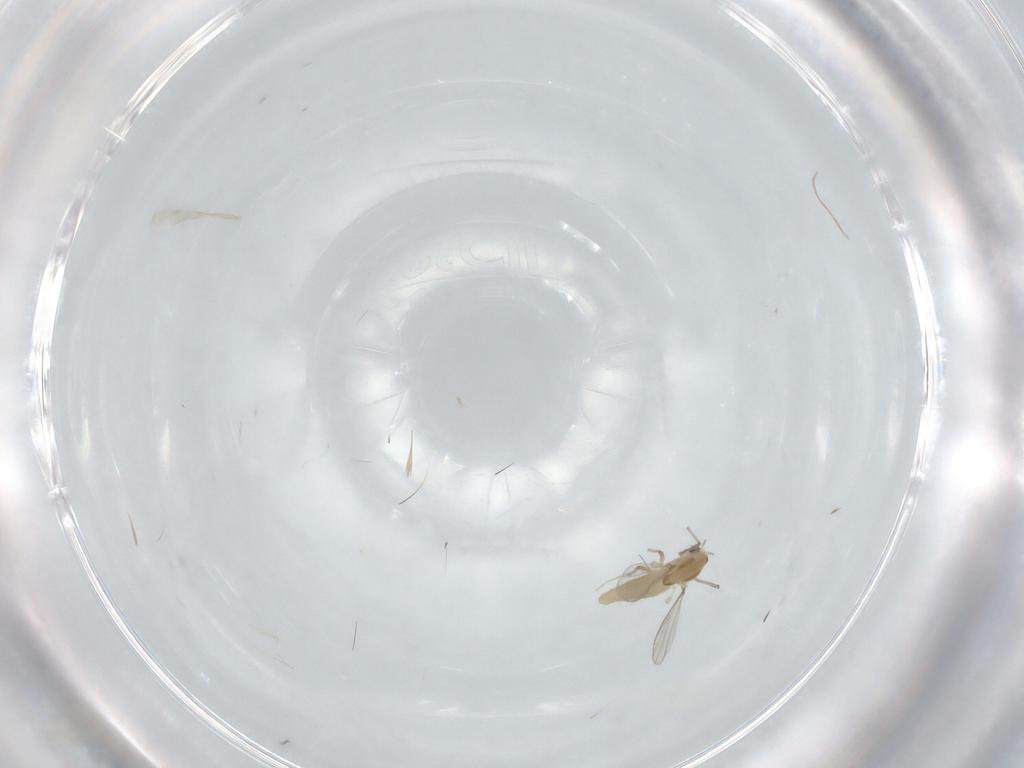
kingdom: Animalia
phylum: Arthropoda
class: Insecta
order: Diptera
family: Chironomidae
